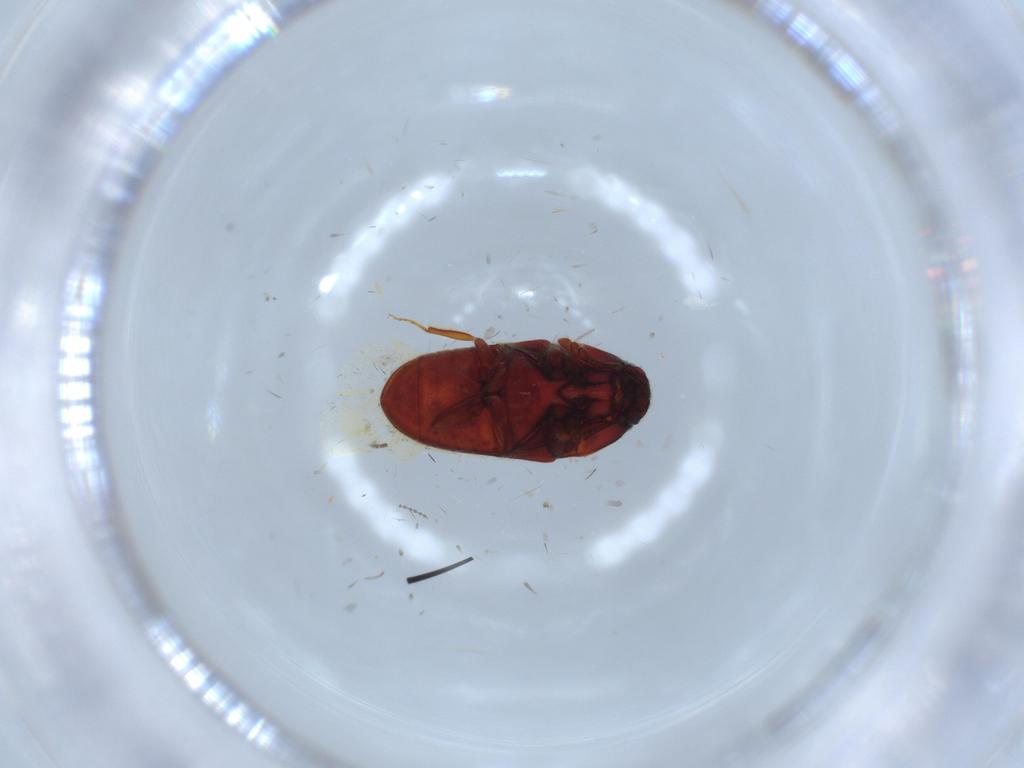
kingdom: Animalia
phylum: Arthropoda
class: Insecta
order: Coleoptera
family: Throscidae
